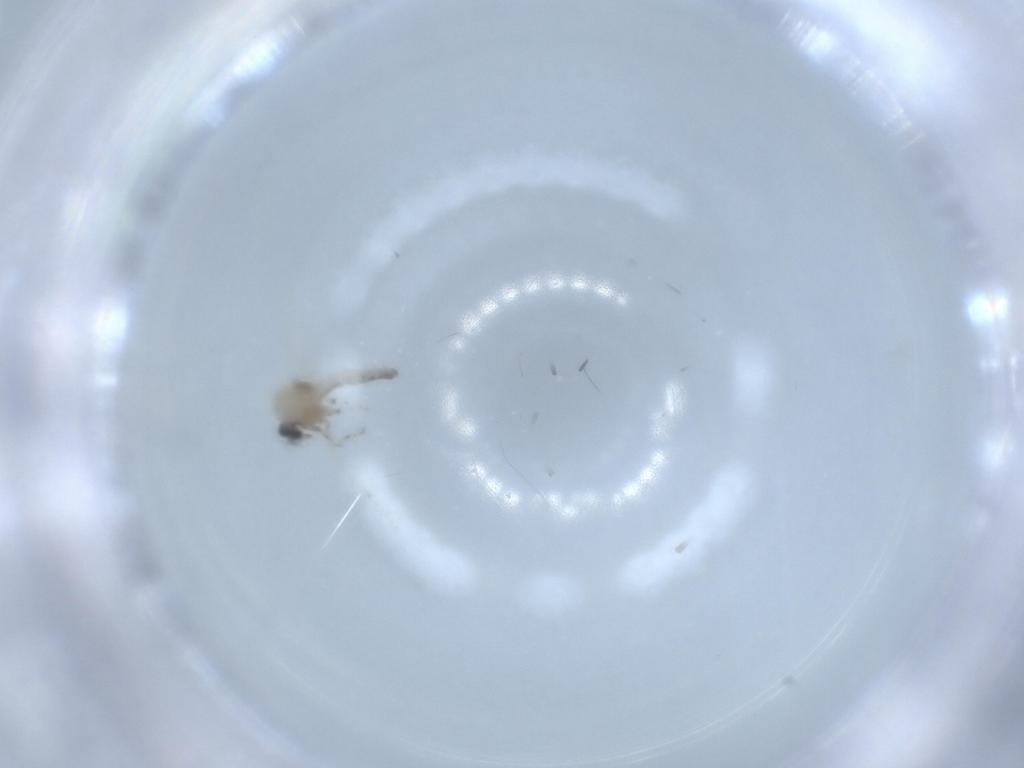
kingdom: Animalia
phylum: Arthropoda
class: Insecta
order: Diptera
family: Ceratopogonidae
